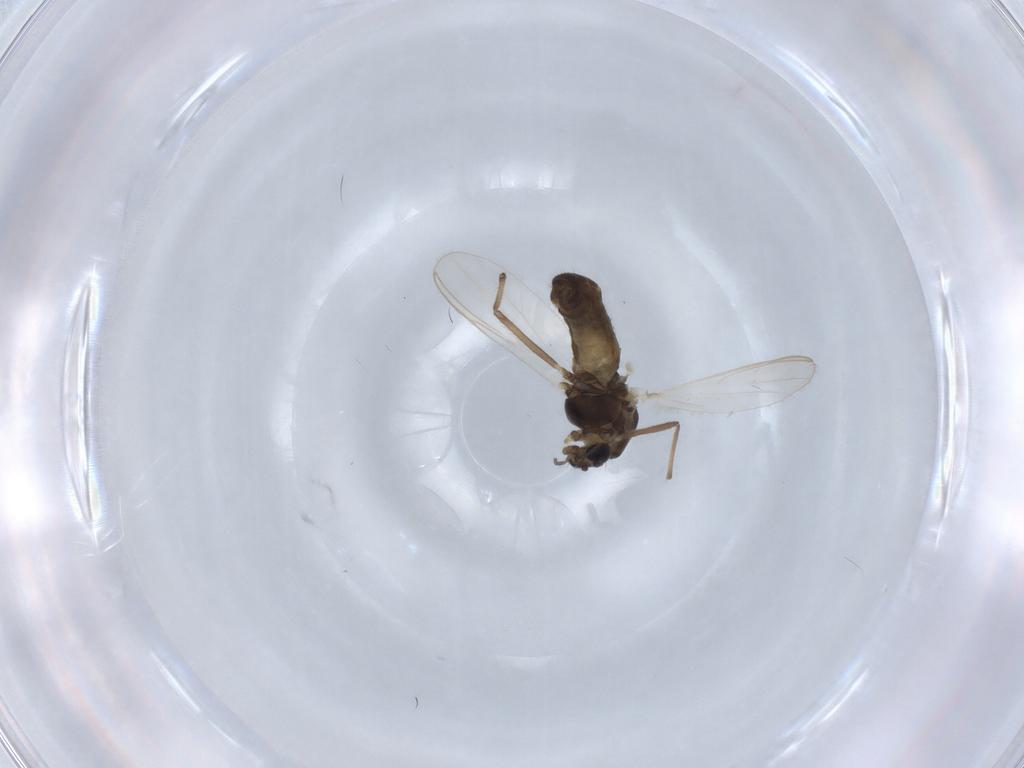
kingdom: Animalia
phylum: Arthropoda
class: Insecta
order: Diptera
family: Chironomidae
